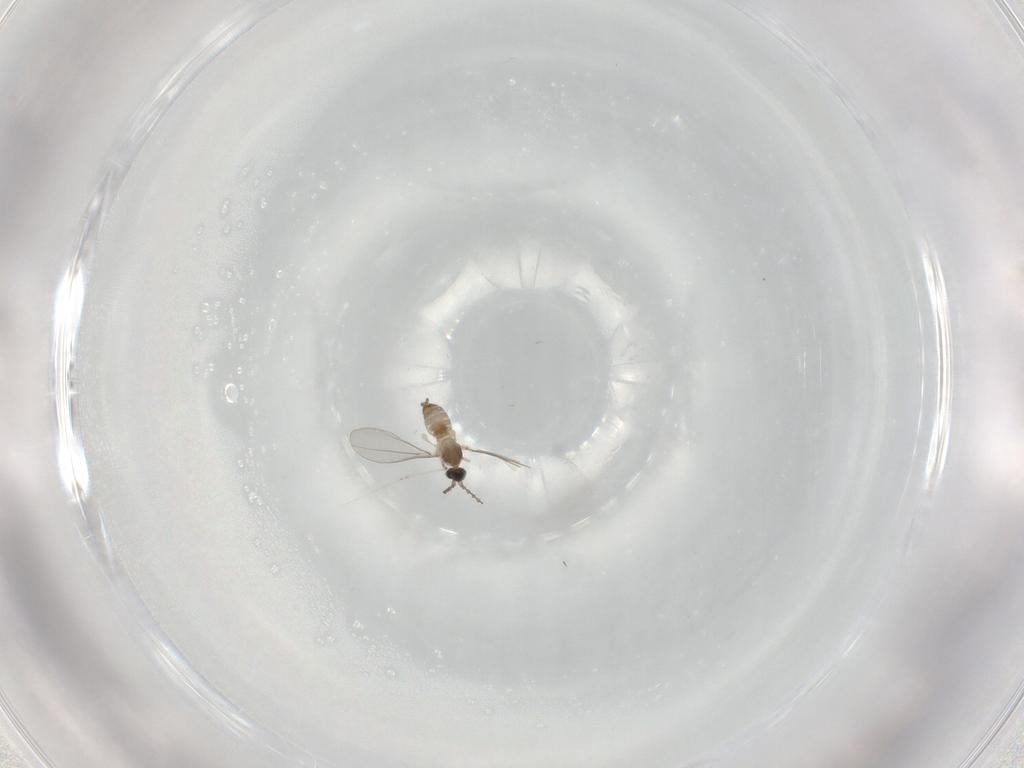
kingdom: Animalia
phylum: Arthropoda
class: Insecta
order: Diptera
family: Cecidomyiidae
